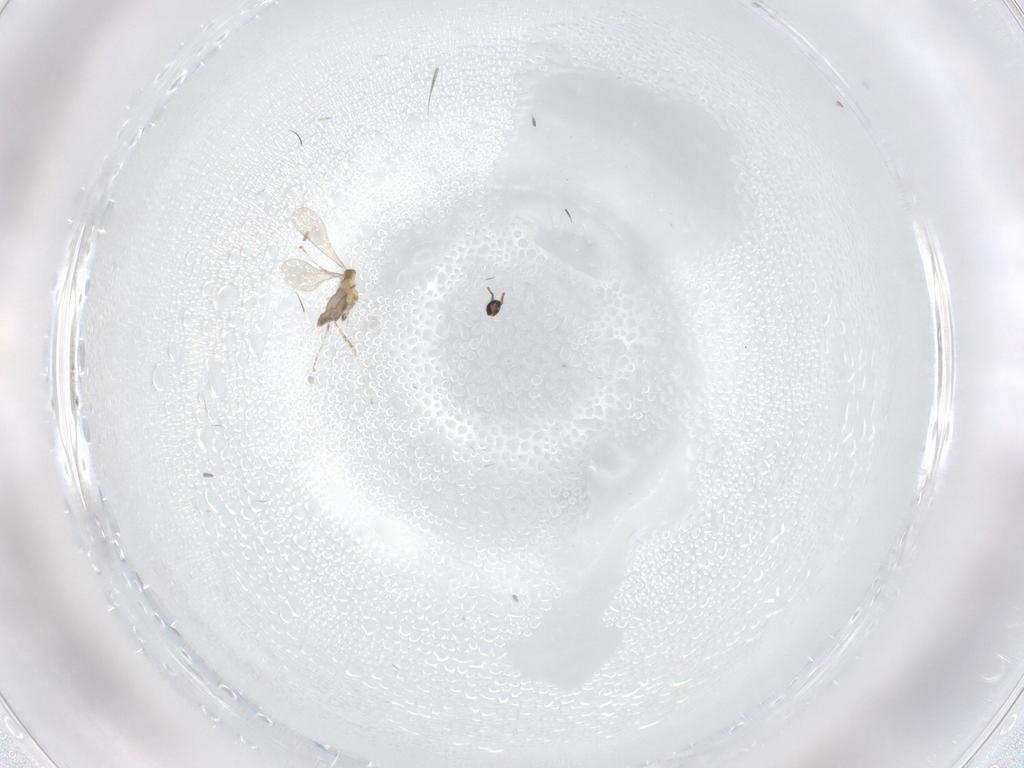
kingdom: Animalia
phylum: Arthropoda
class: Insecta
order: Diptera
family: Cecidomyiidae
